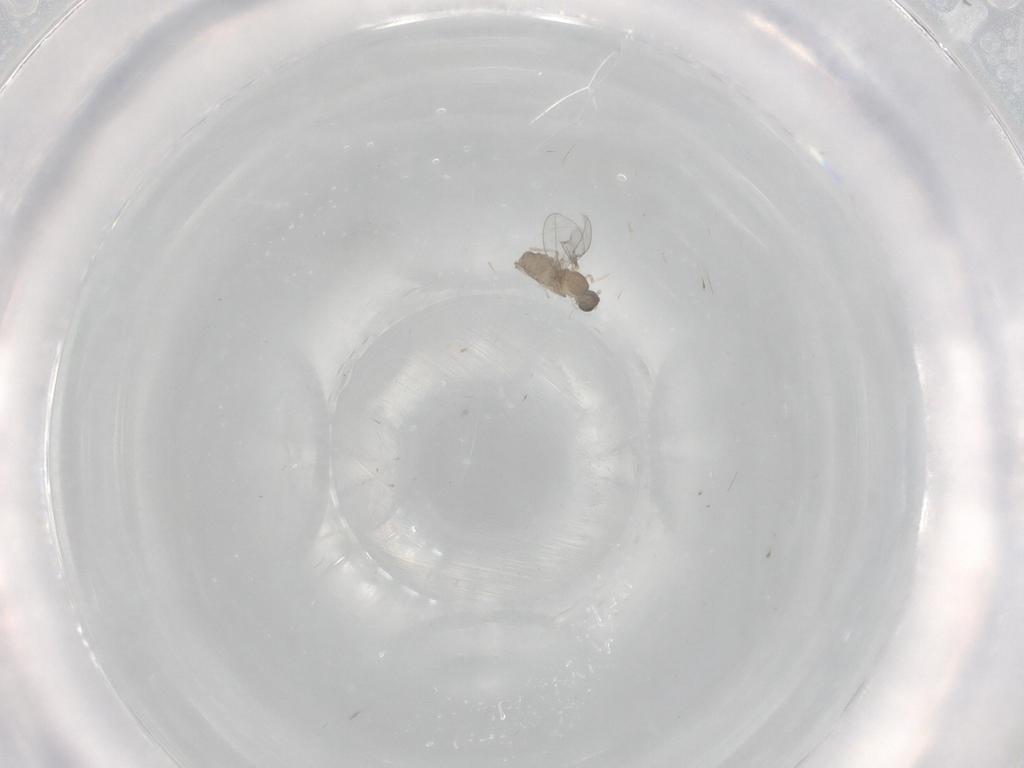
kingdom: Animalia
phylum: Arthropoda
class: Insecta
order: Diptera
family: Cecidomyiidae
